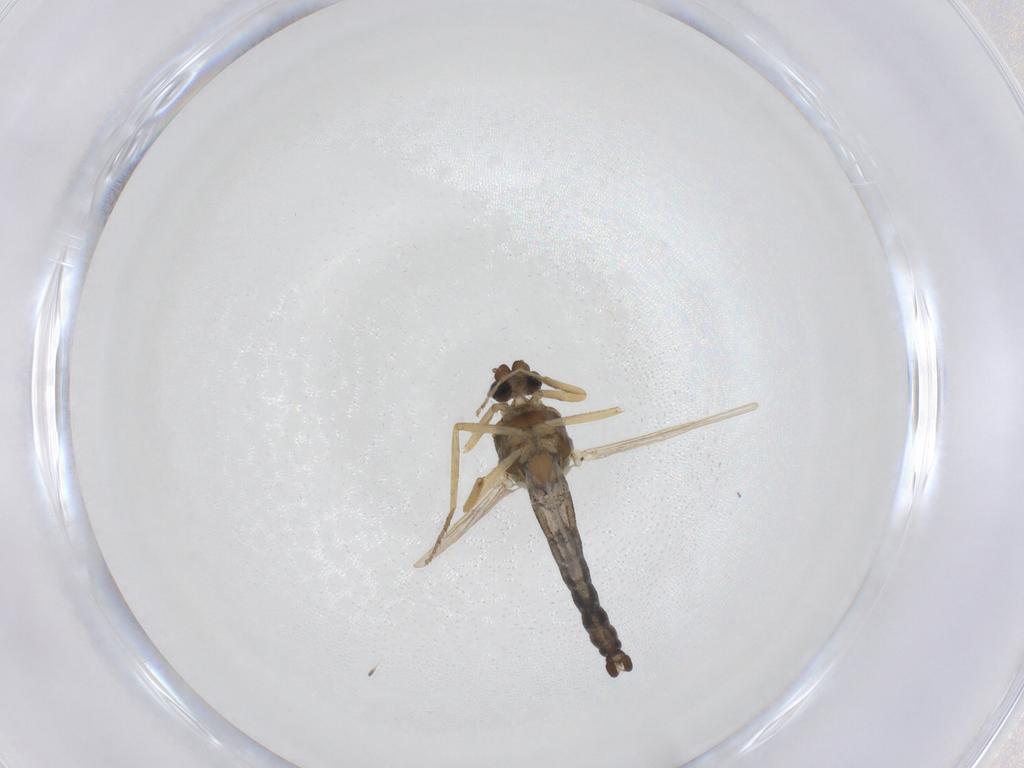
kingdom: Animalia
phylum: Arthropoda
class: Insecta
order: Diptera
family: Ceratopogonidae
